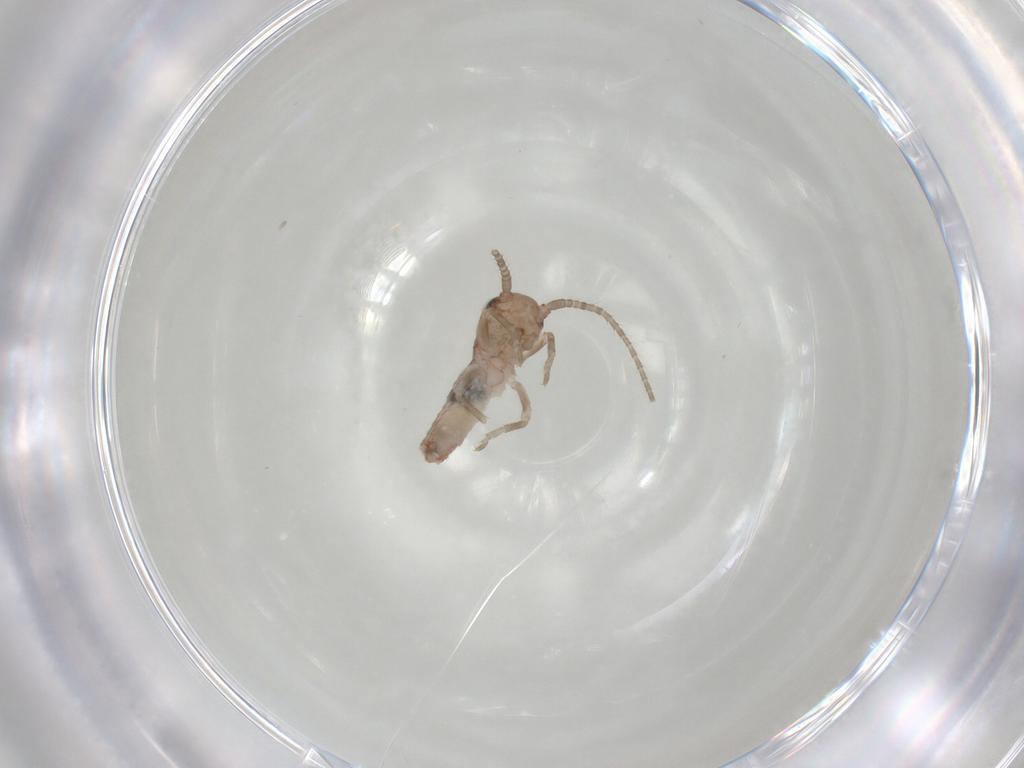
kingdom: Animalia
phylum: Arthropoda
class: Insecta
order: Orthoptera
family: Gryllidae
